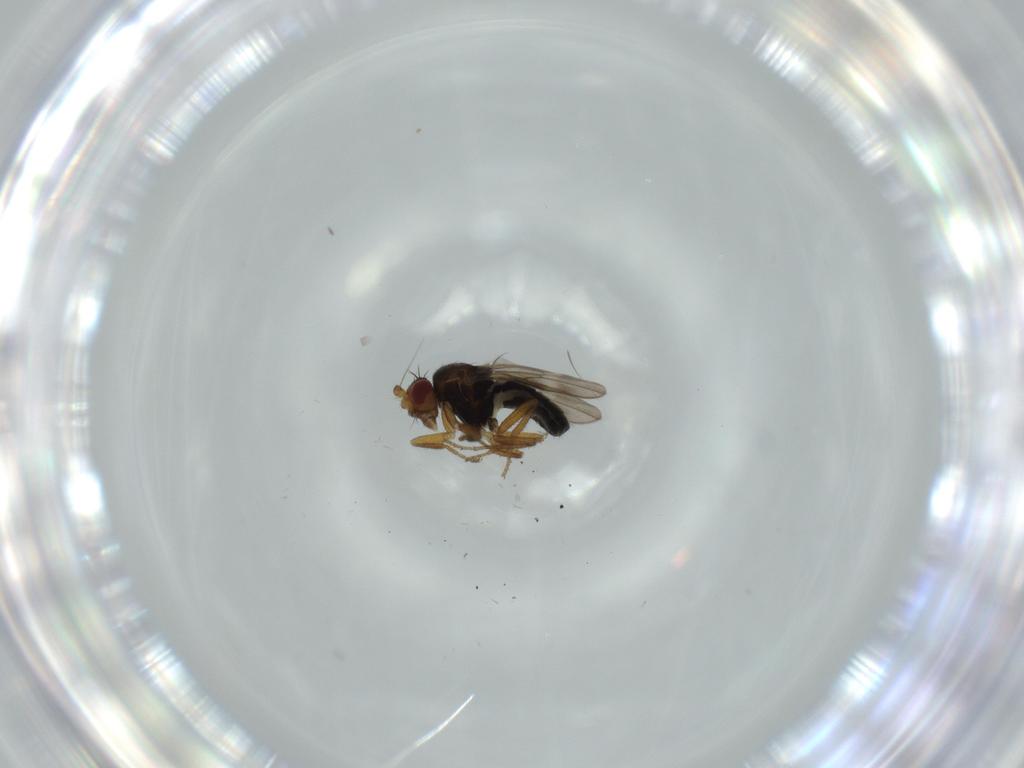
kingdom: Animalia
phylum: Arthropoda
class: Insecta
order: Diptera
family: Sphaeroceridae
